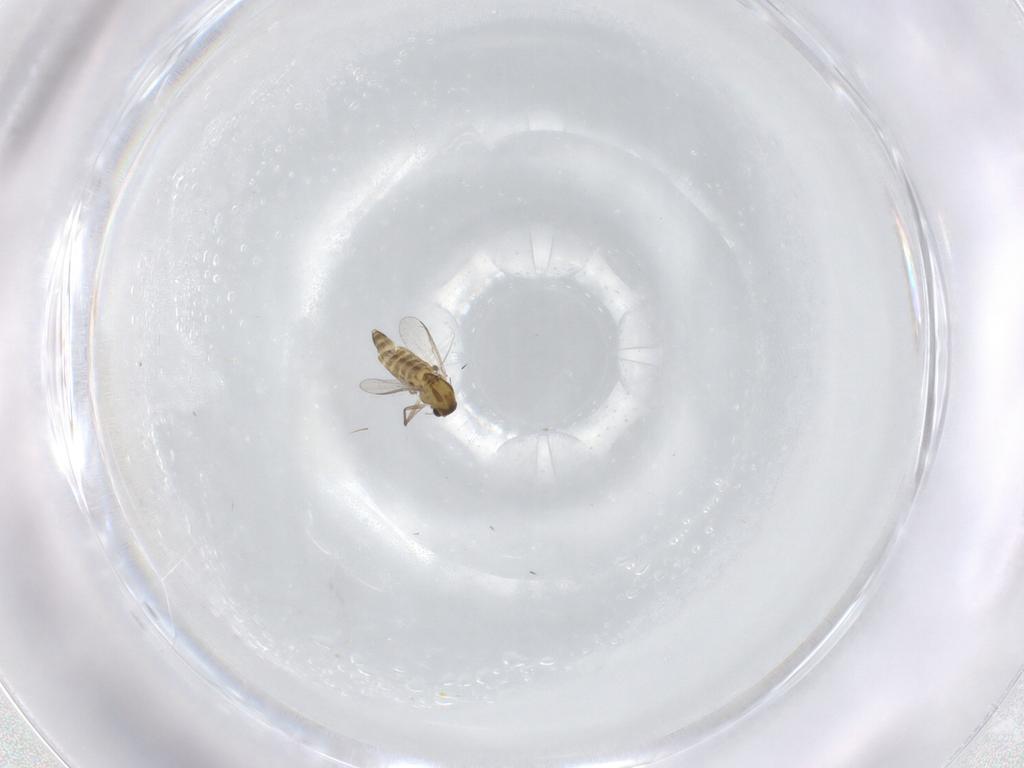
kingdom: Animalia
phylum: Arthropoda
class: Insecta
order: Diptera
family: Chironomidae
